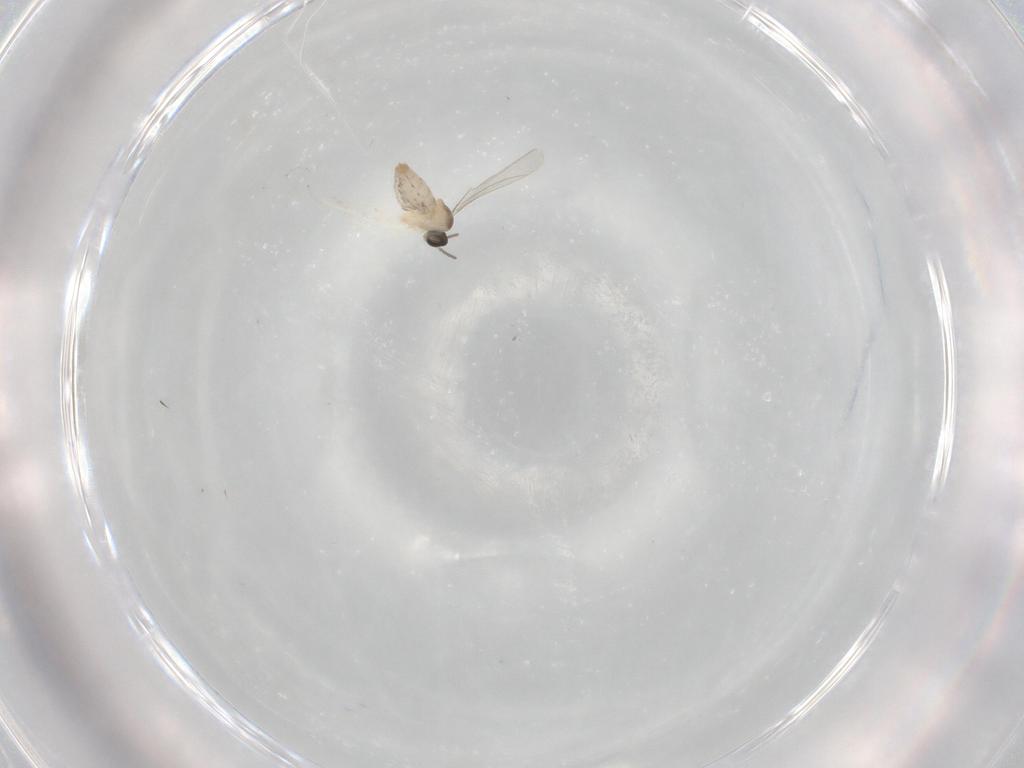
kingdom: Animalia
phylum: Arthropoda
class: Insecta
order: Diptera
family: Cecidomyiidae
